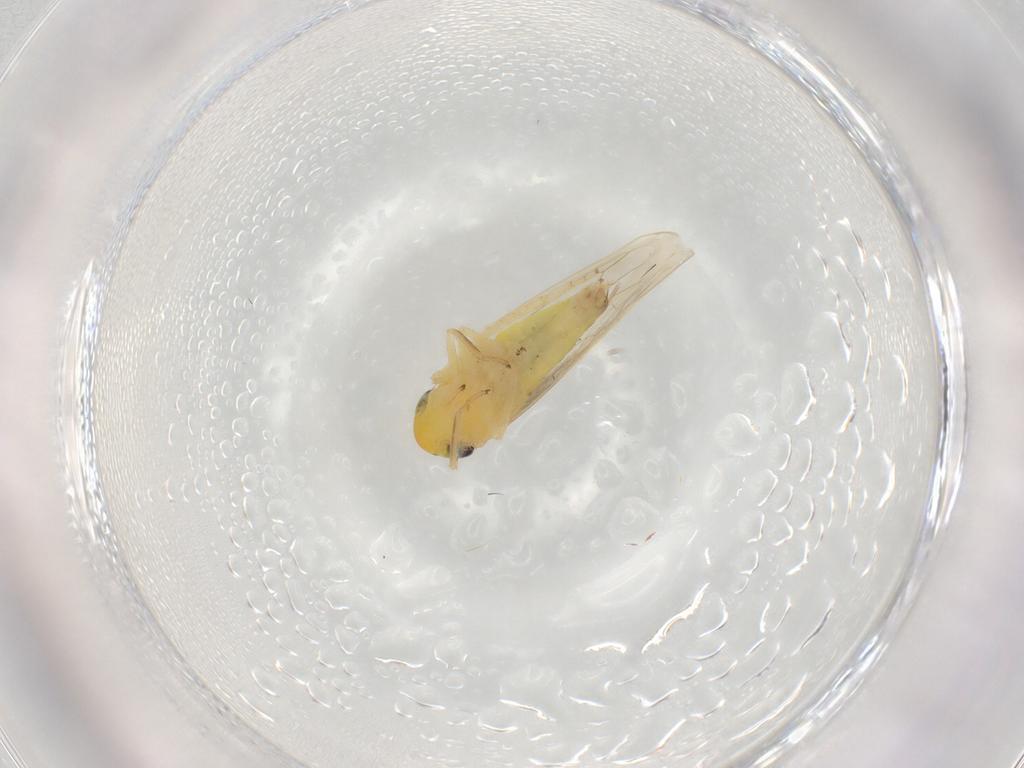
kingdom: Animalia
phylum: Arthropoda
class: Insecta
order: Hemiptera
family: Cicadellidae
